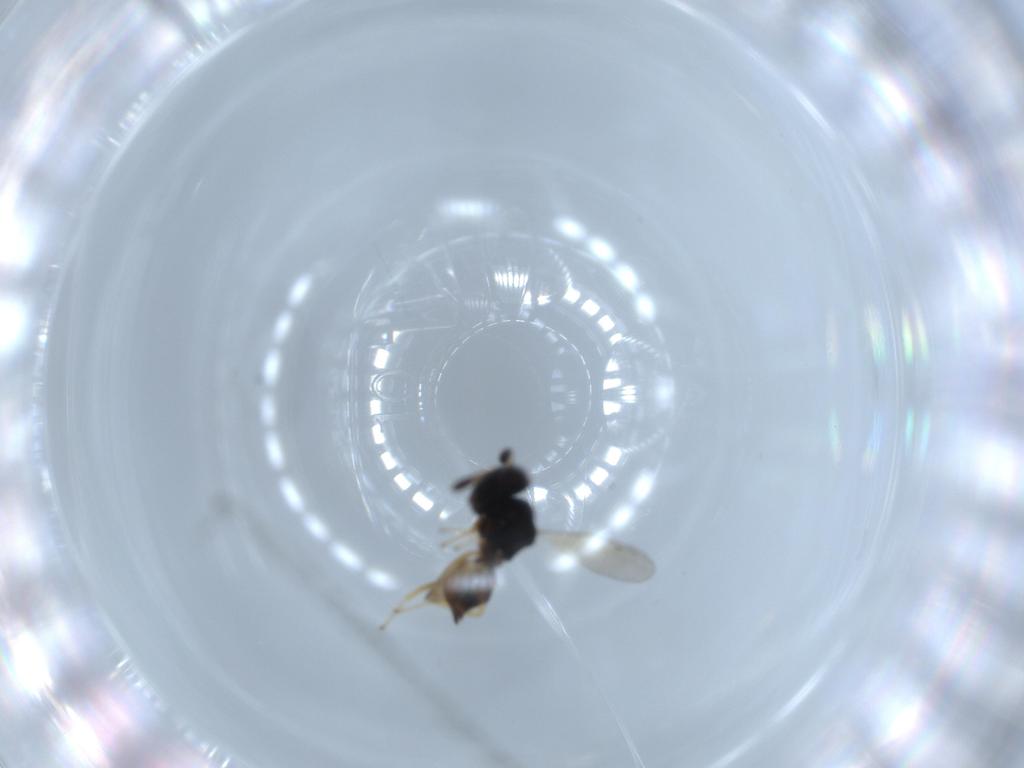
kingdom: Animalia
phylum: Arthropoda
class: Insecta
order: Hymenoptera
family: Pteromalidae
